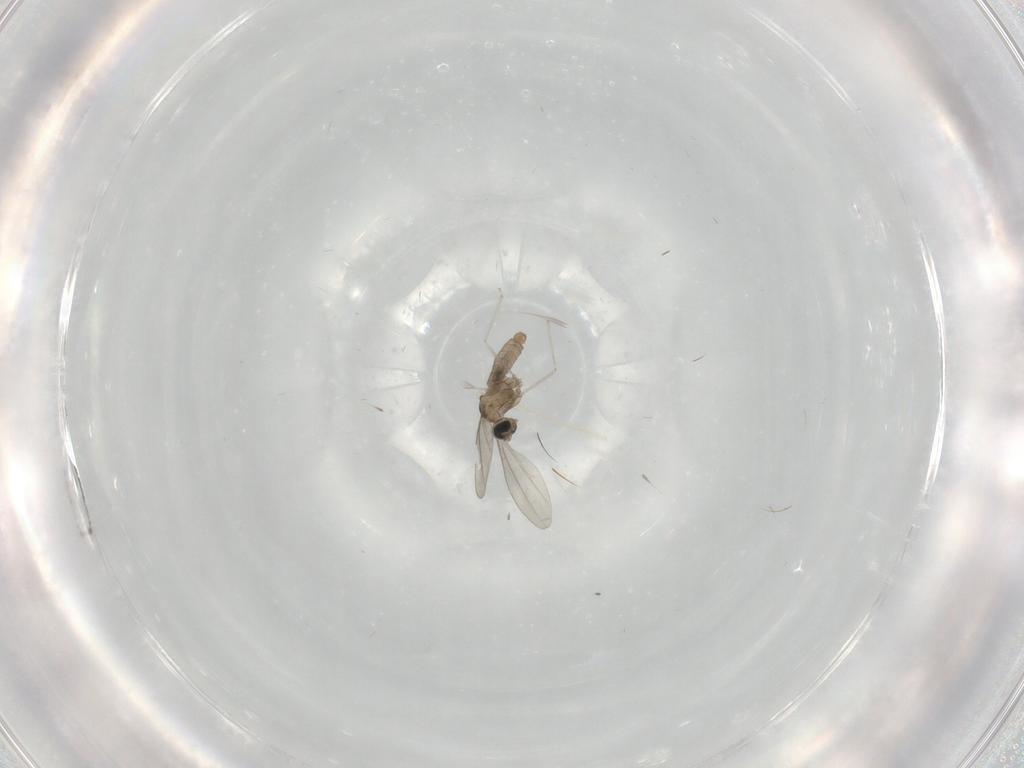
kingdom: Animalia
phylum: Arthropoda
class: Insecta
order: Diptera
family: Cecidomyiidae
